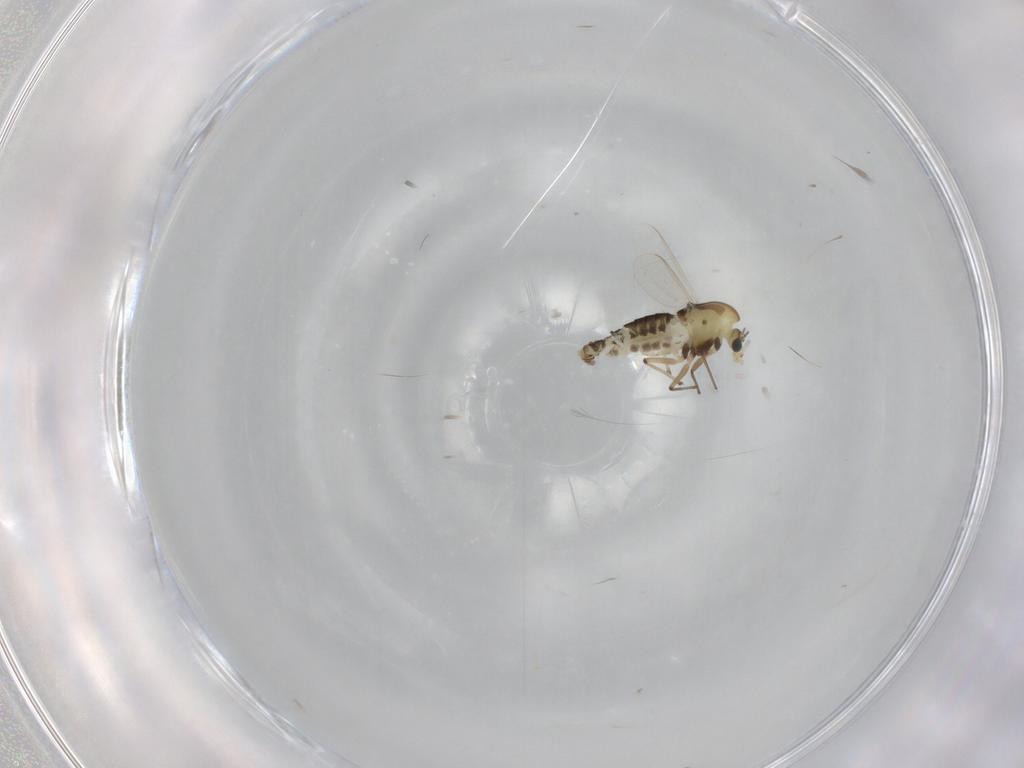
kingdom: Animalia
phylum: Arthropoda
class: Insecta
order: Diptera
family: Chironomidae
